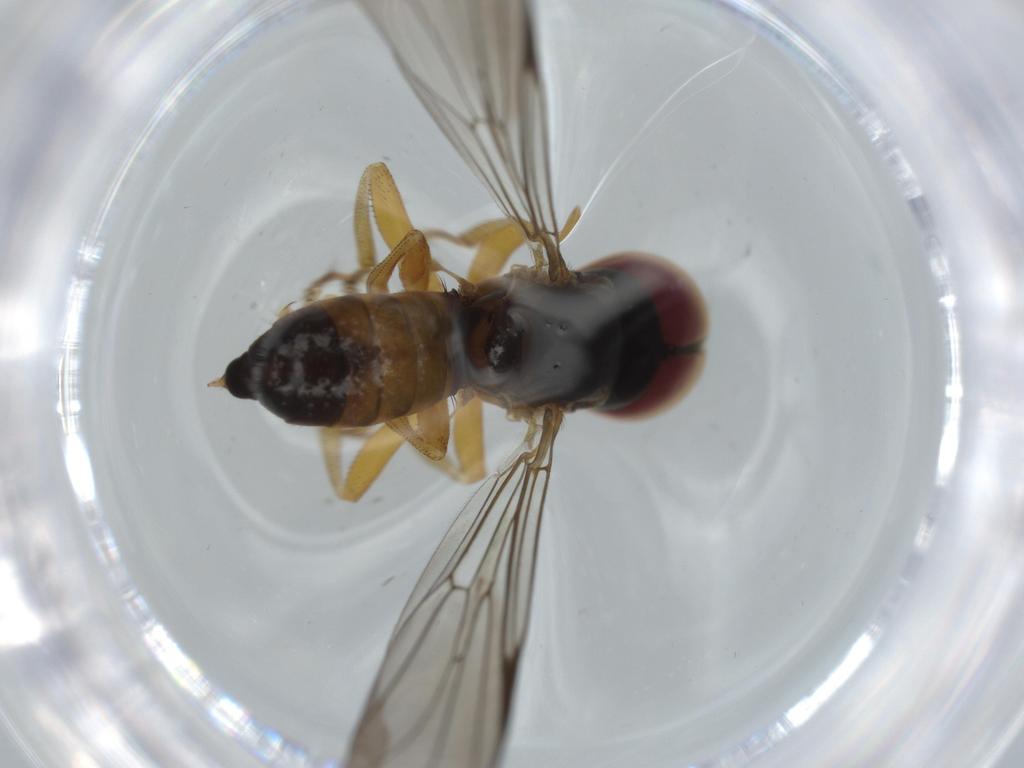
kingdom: Animalia
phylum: Arthropoda
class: Insecta
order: Diptera
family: Pipunculidae
